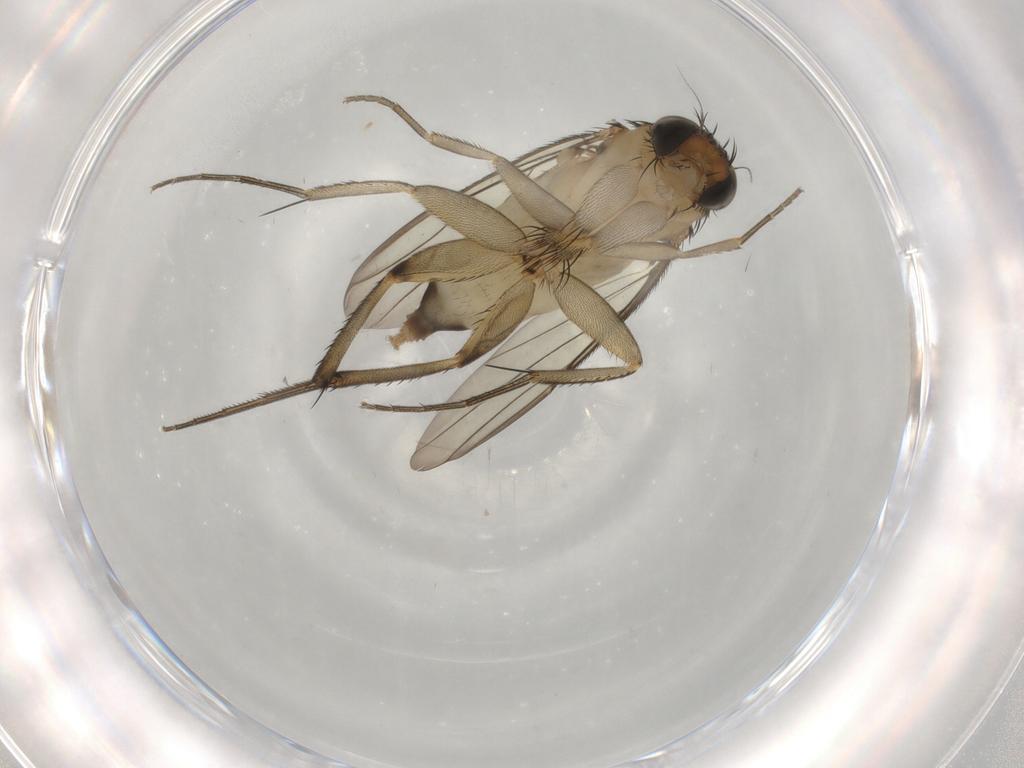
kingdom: Animalia
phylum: Arthropoda
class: Insecta
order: Diptera
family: Phoridae
